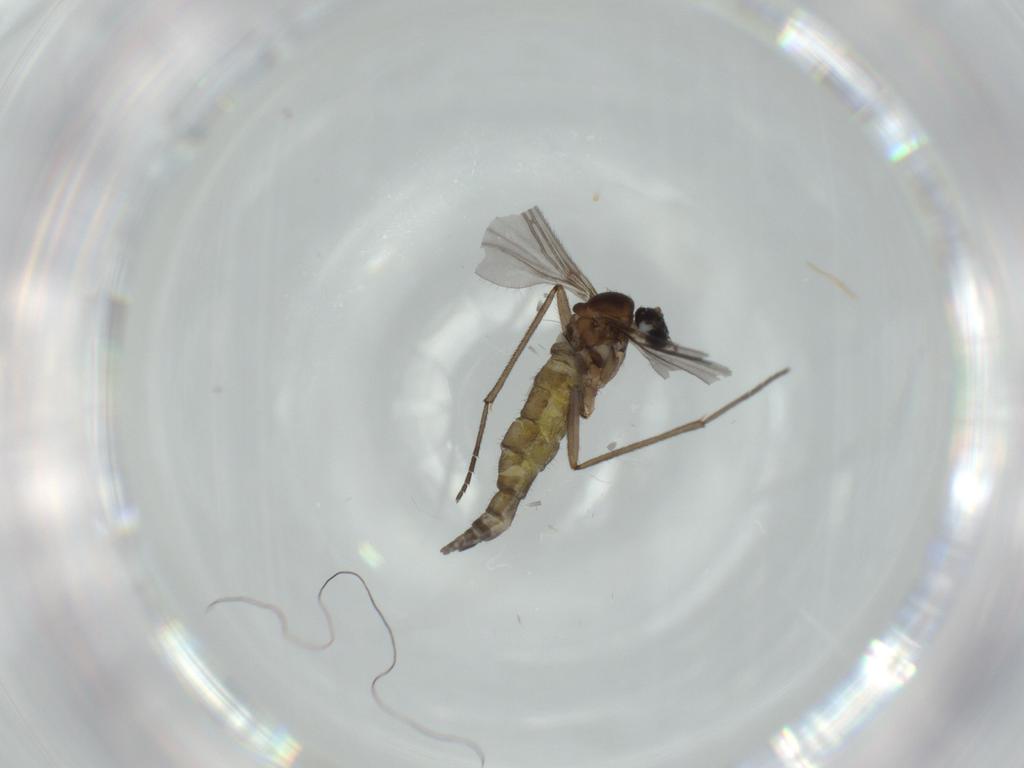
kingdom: Animalia
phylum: Arthropoda
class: Insecta
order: Diptera
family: Sciaridae
